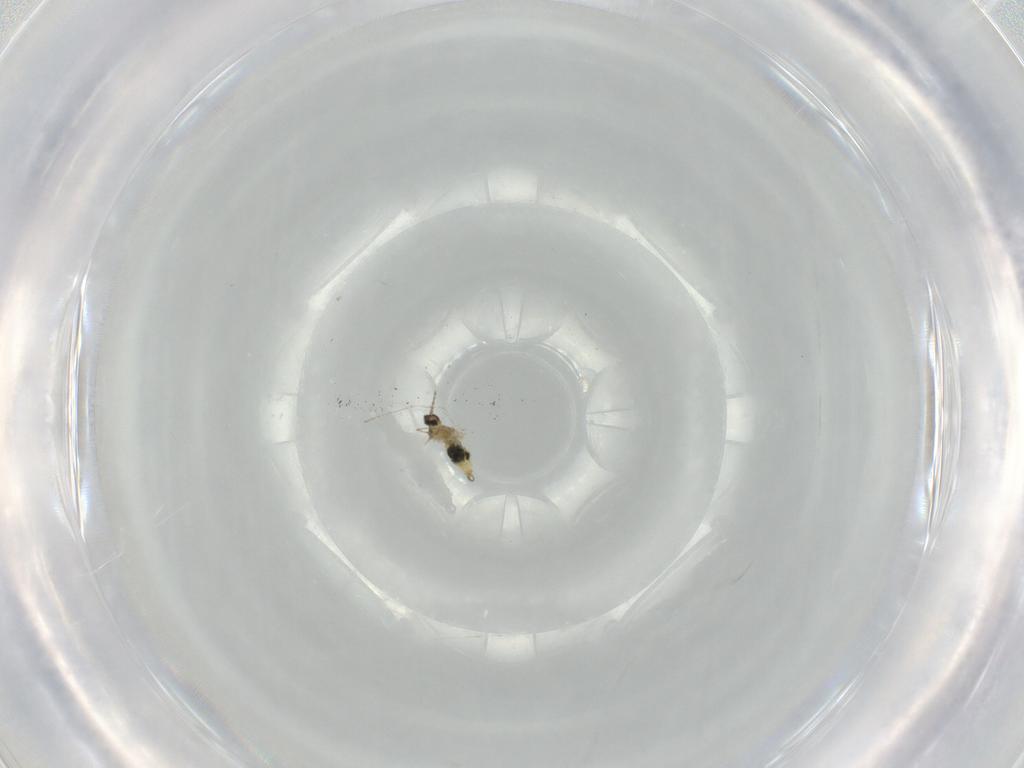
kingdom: Animalia
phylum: Arthropoda
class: Insecta
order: Diptera
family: Cecidomyiidae
